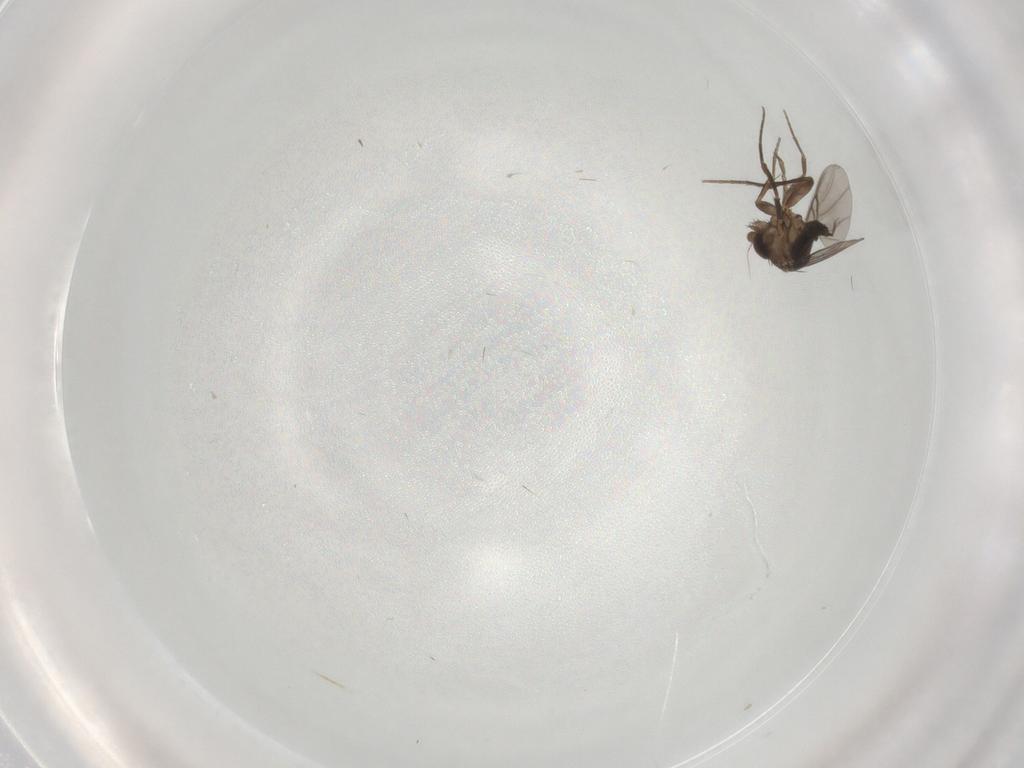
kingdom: Animalia
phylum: Arthropoda
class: Insecta
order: Diptera
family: Phoridae
